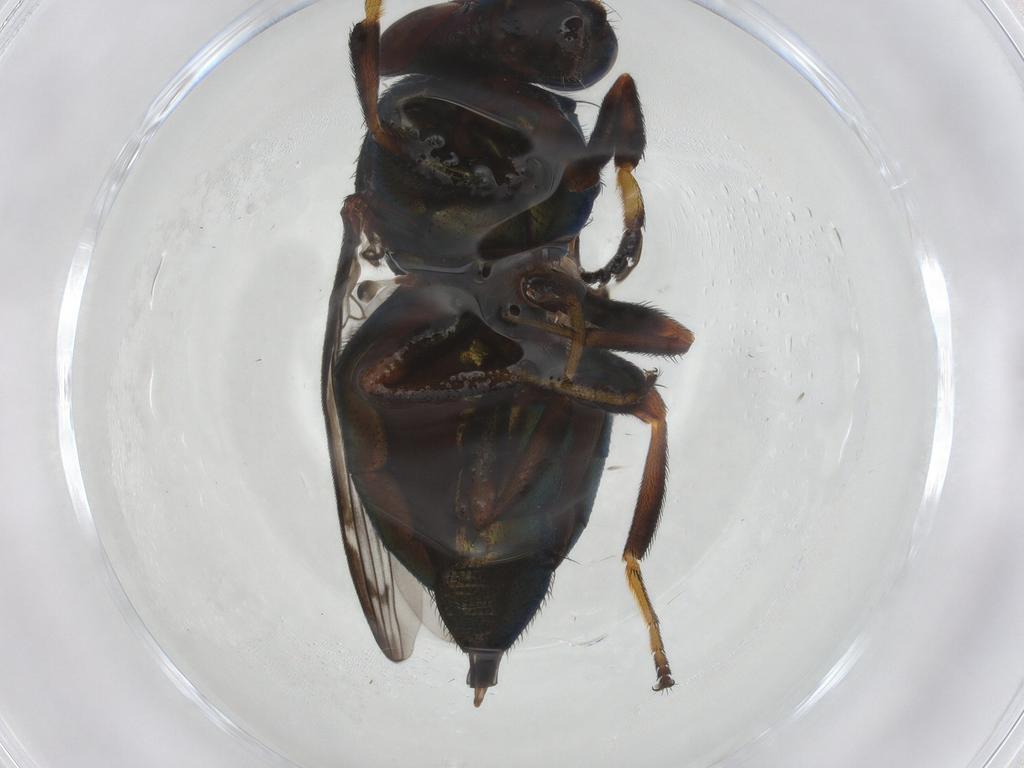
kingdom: Animalia
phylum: Arthropoda
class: Insecta
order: Diptera
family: Ulidiidae
